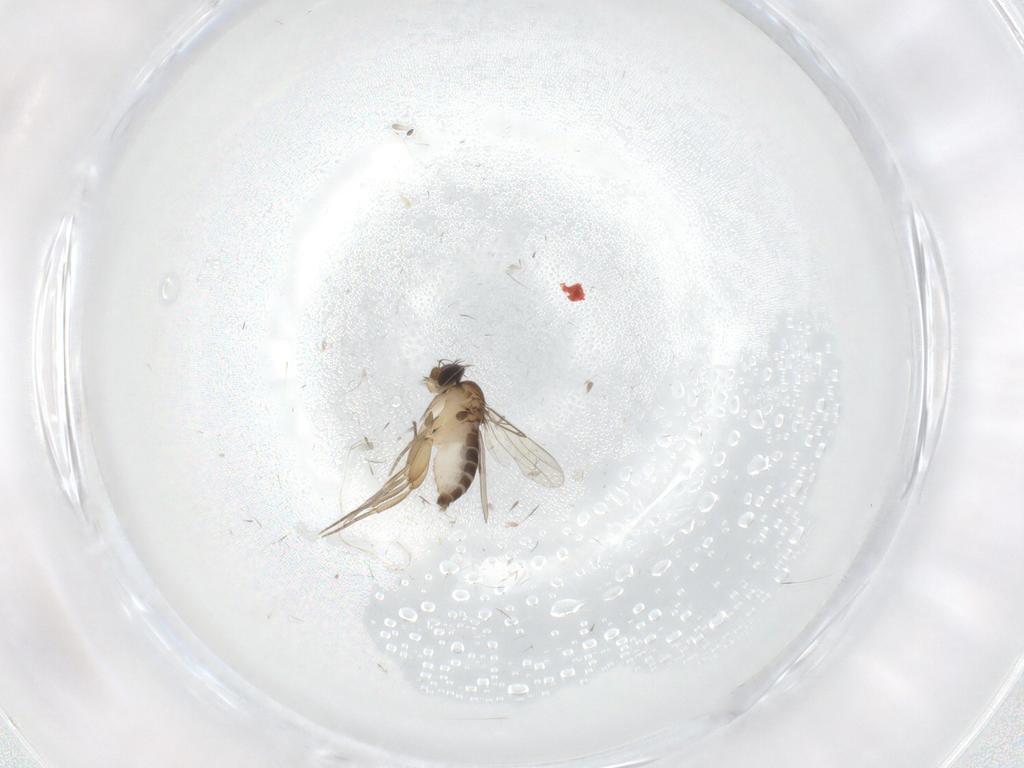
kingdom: Animalia
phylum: Arthropoda
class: Insecta
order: Diptera
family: Phoridae
